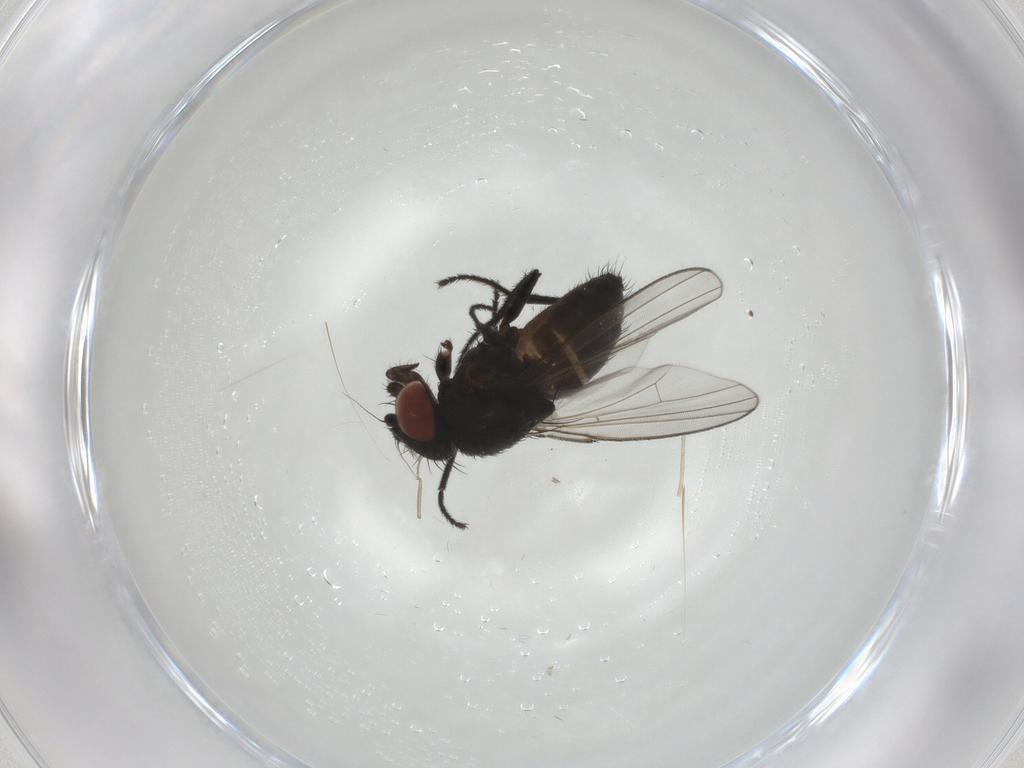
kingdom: Animalia
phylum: Arthropoda
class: Insecta
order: Diptera
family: Milichiidae
